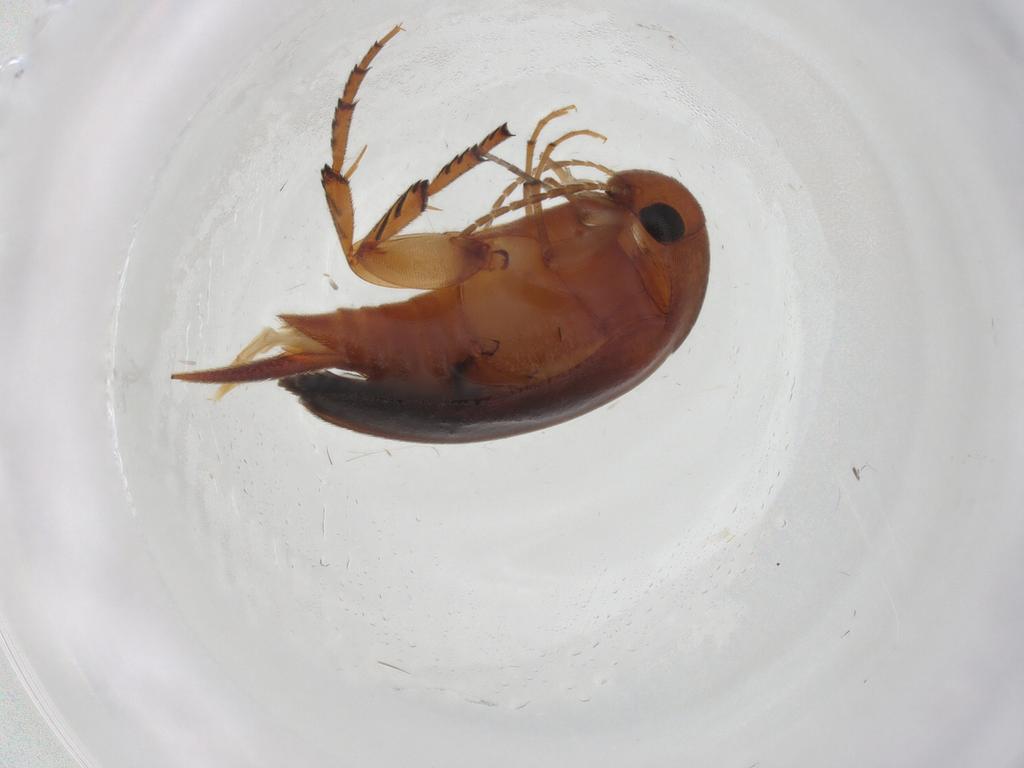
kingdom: Animalia
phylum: Arthropoda
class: Insecta
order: Coleoptera
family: Mordellidae
